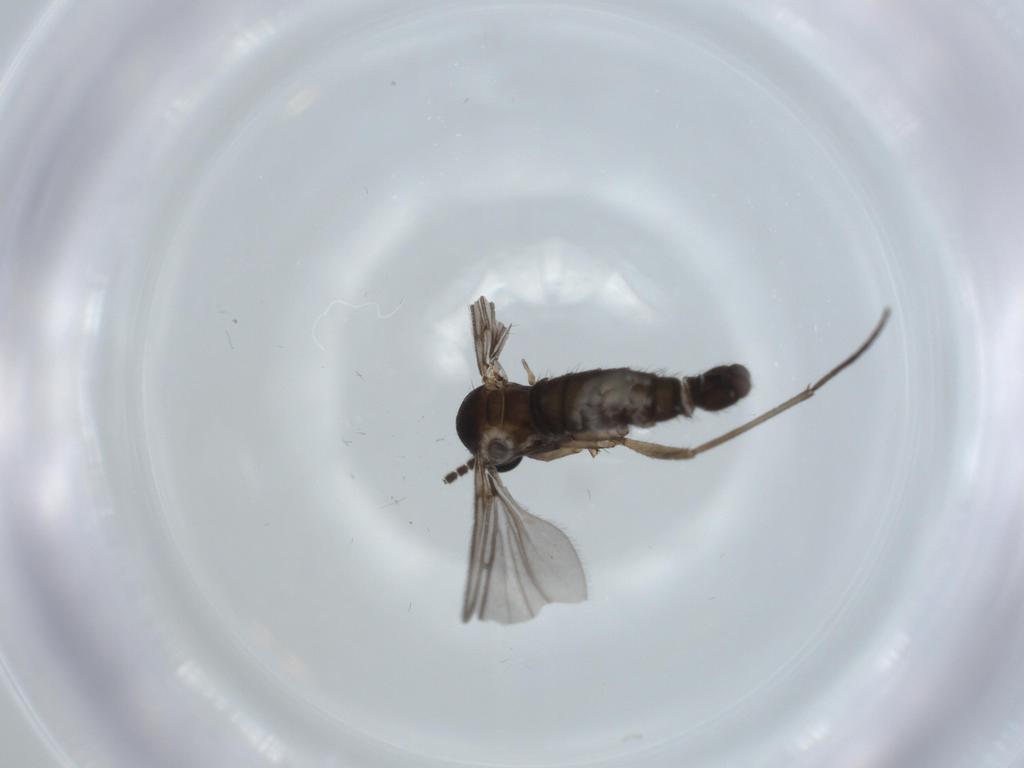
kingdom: Animalia
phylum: Arthropoda
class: Insecta
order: Diptera
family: Sciaridae
